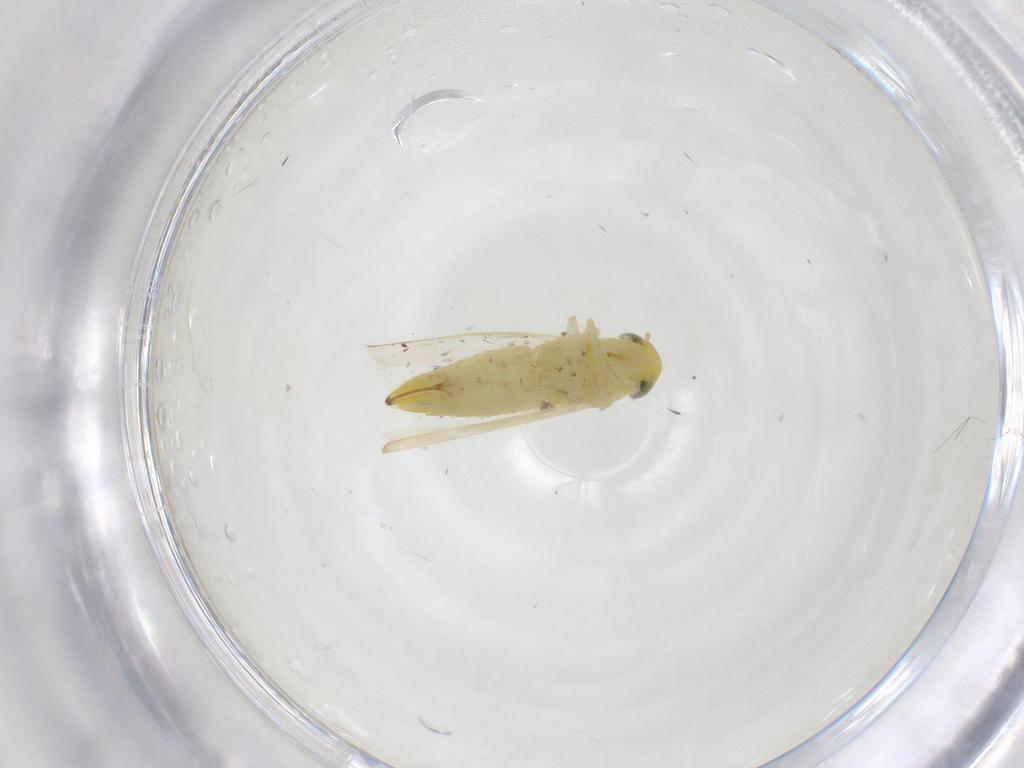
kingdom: Animalia
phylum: Arthropoda
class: Insecta
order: Hemiptera
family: Cicadellidae
